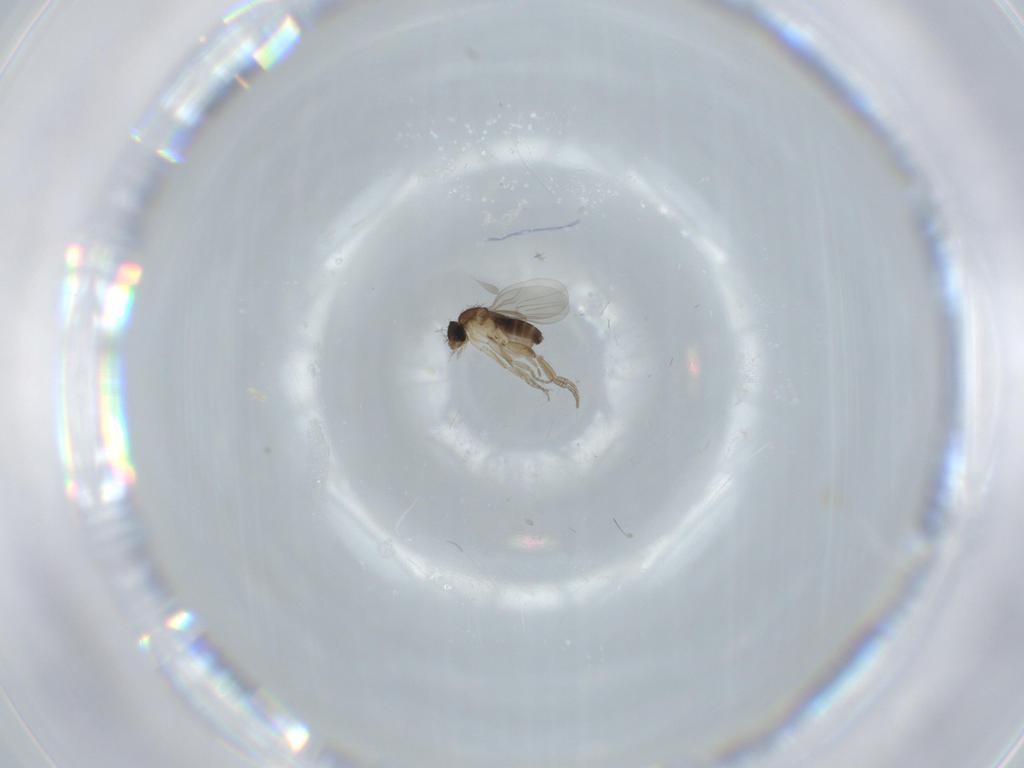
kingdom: Animalia
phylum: Arthropoda
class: Insecta
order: Diptera
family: Phoridae
